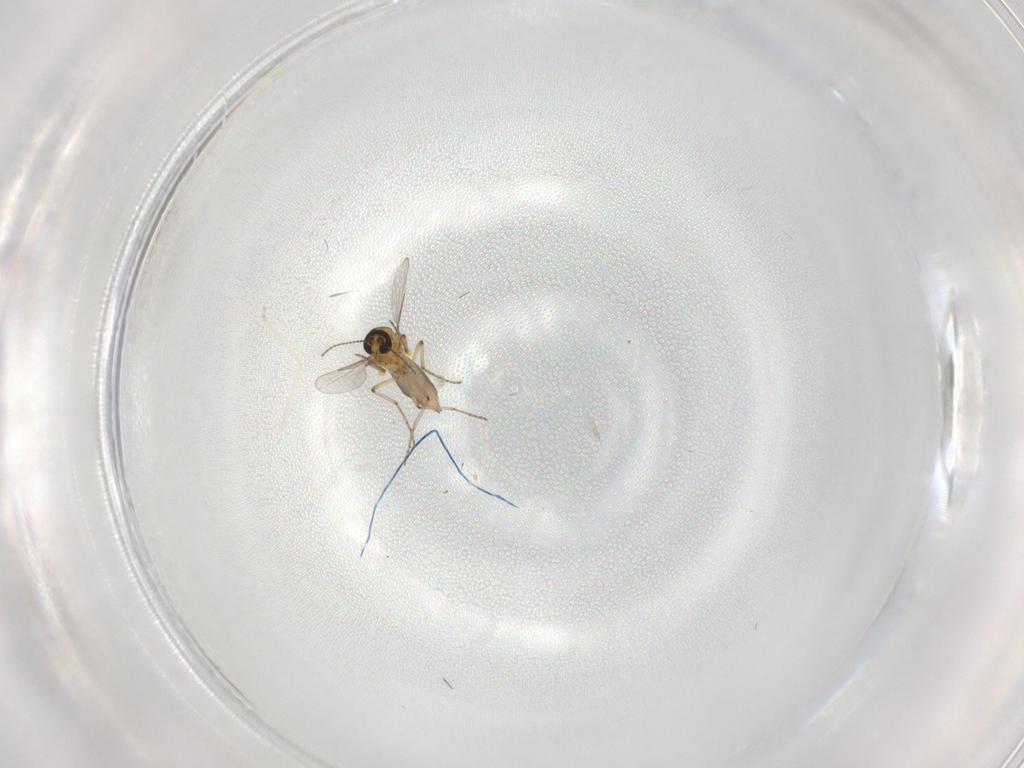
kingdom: Animalia
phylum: Arthropoda
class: Insecta
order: Diptera
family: Ceratopogonidae
